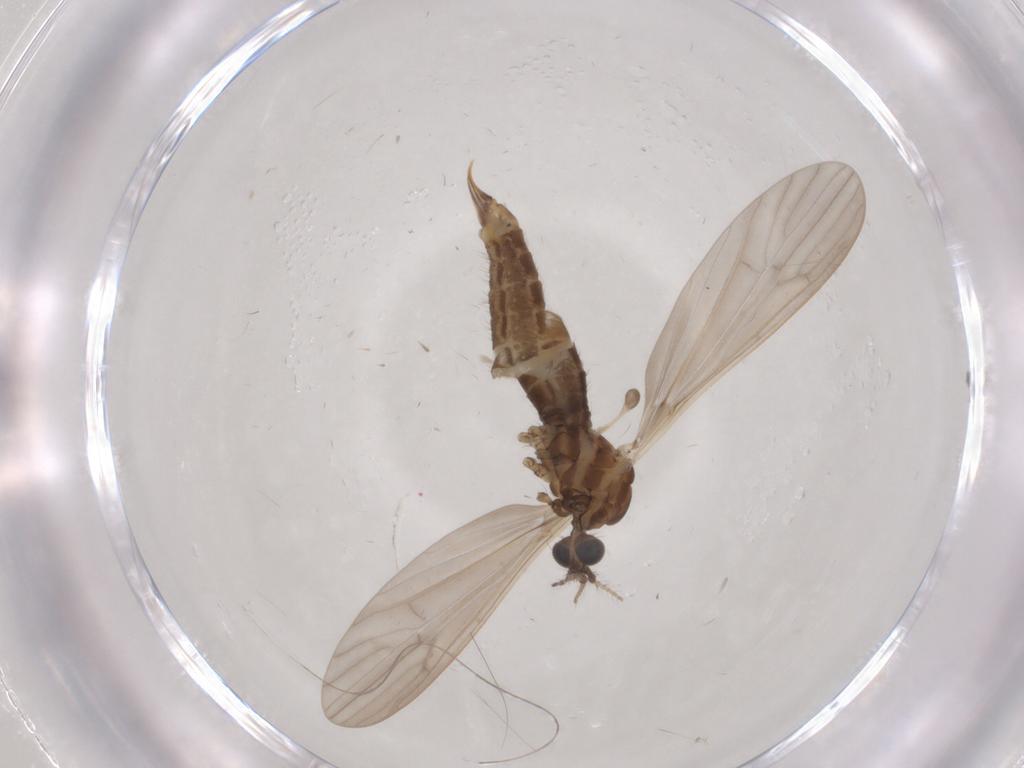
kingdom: Animalia
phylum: Arthropoda
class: Insecta
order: Diptera
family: Limoniidae
